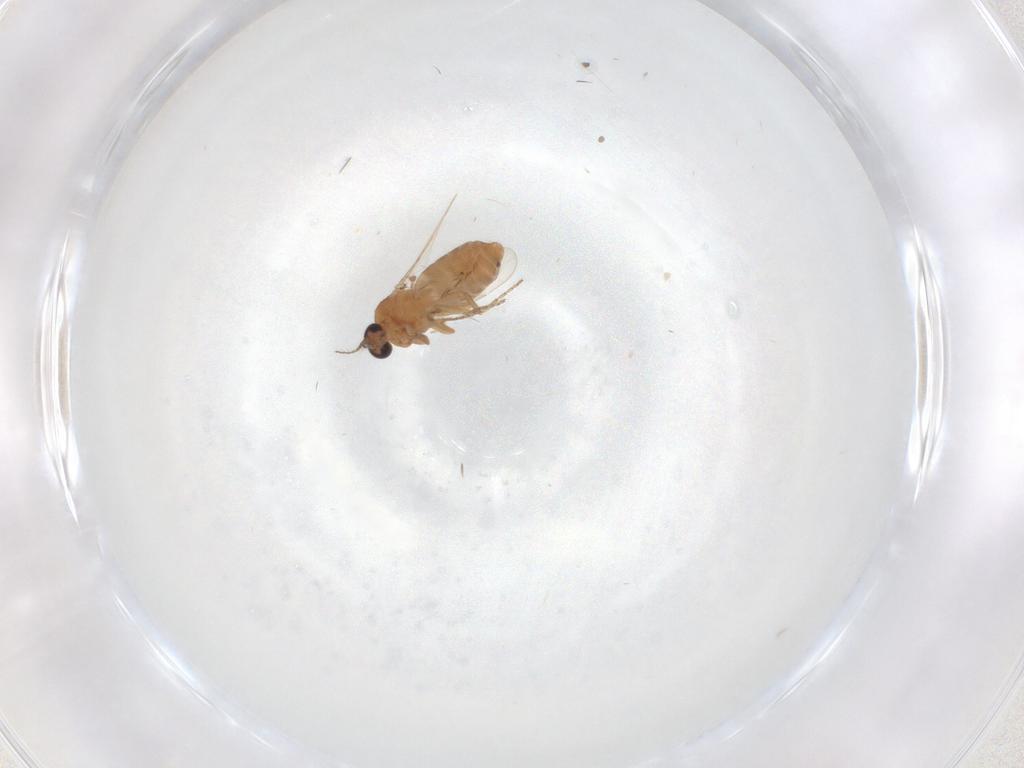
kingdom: Animalia
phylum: Arthropoda
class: Insecta
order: Diptera
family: Ceratopogonidae
